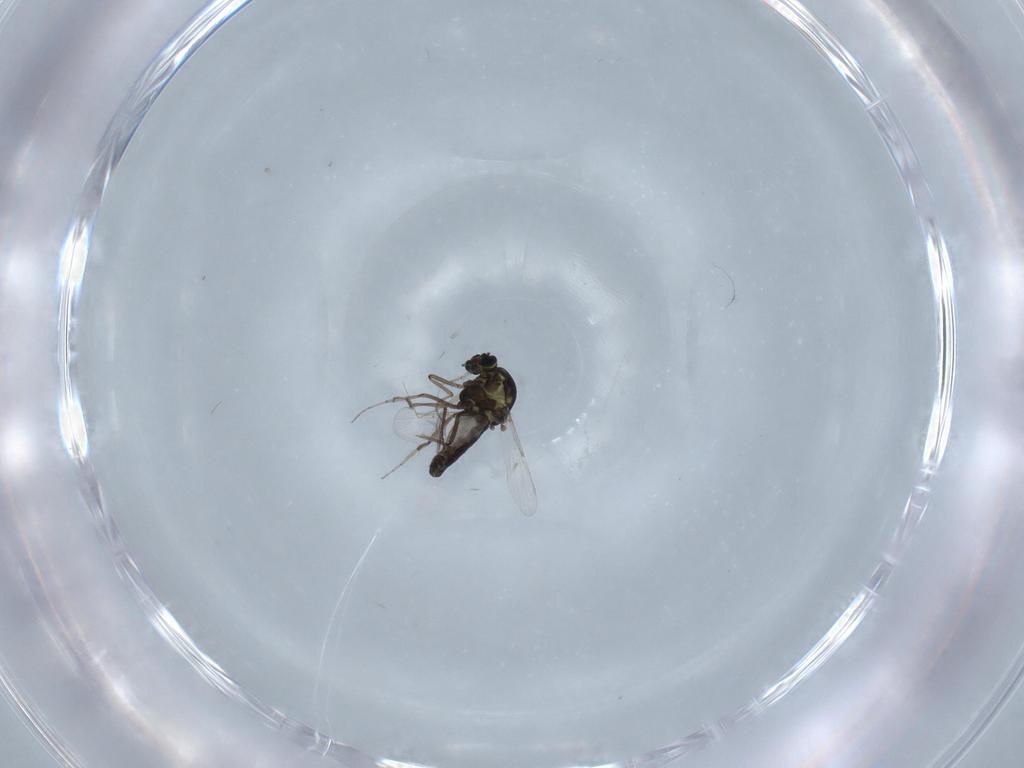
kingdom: Animalia
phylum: Arthropoda
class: Insecta
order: Diptera
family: Ceratopogonidae
